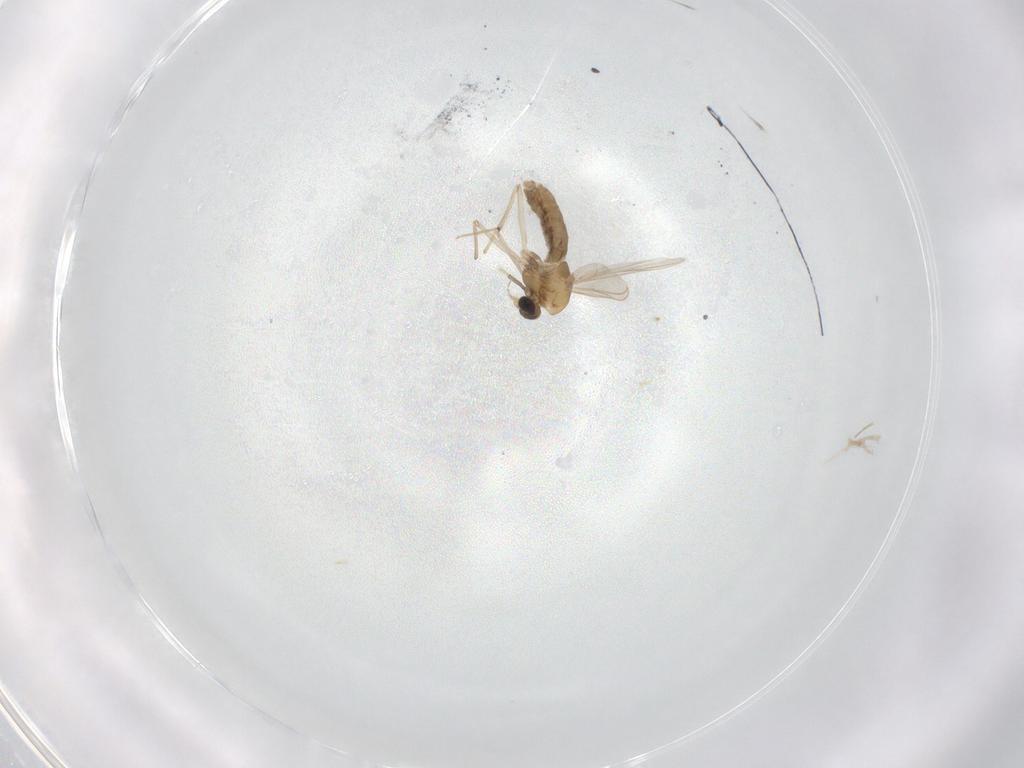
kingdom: Animalia
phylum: Arthropoda
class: Insecta
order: Diptera
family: Chironomidae
